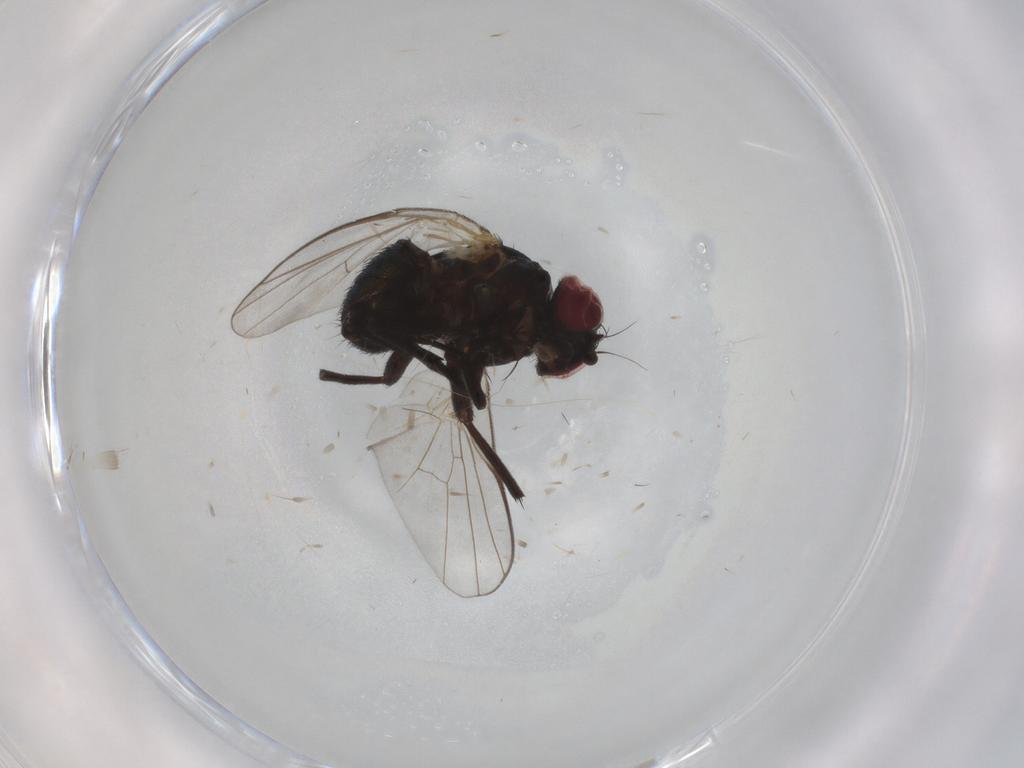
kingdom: Animalia
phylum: Arthropoda
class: Insecta
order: Diptera
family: Agromyzidae
